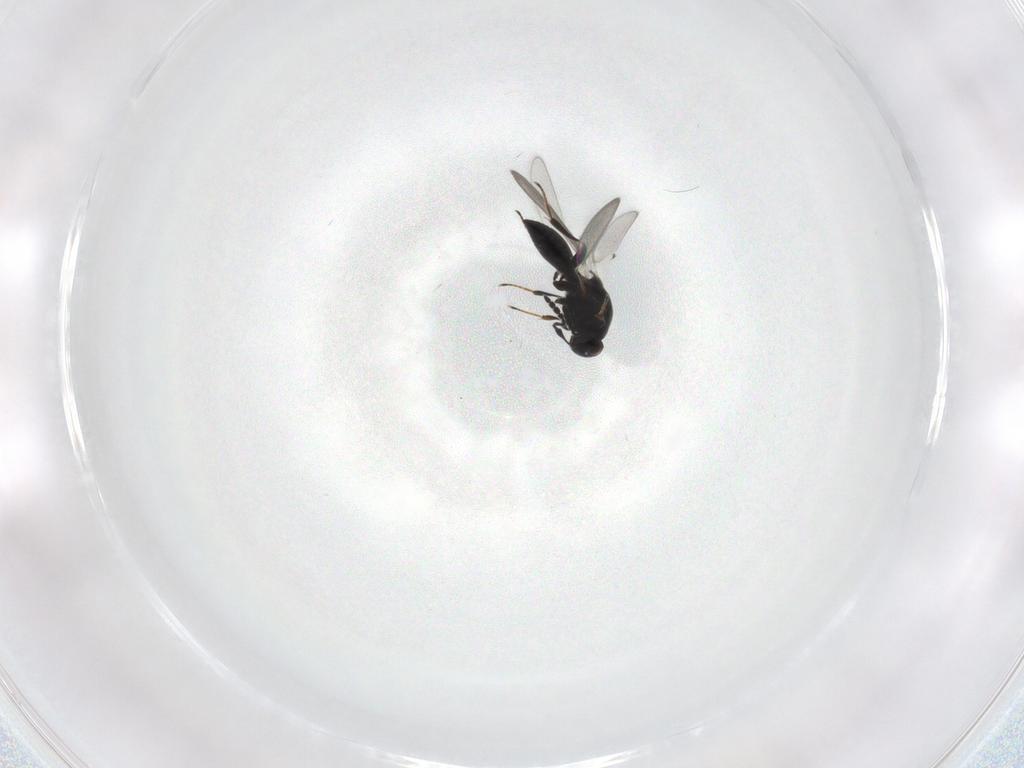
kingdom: Animalia
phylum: Arthropoda
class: Insecta
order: Hymenoptera
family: Platygastridae
